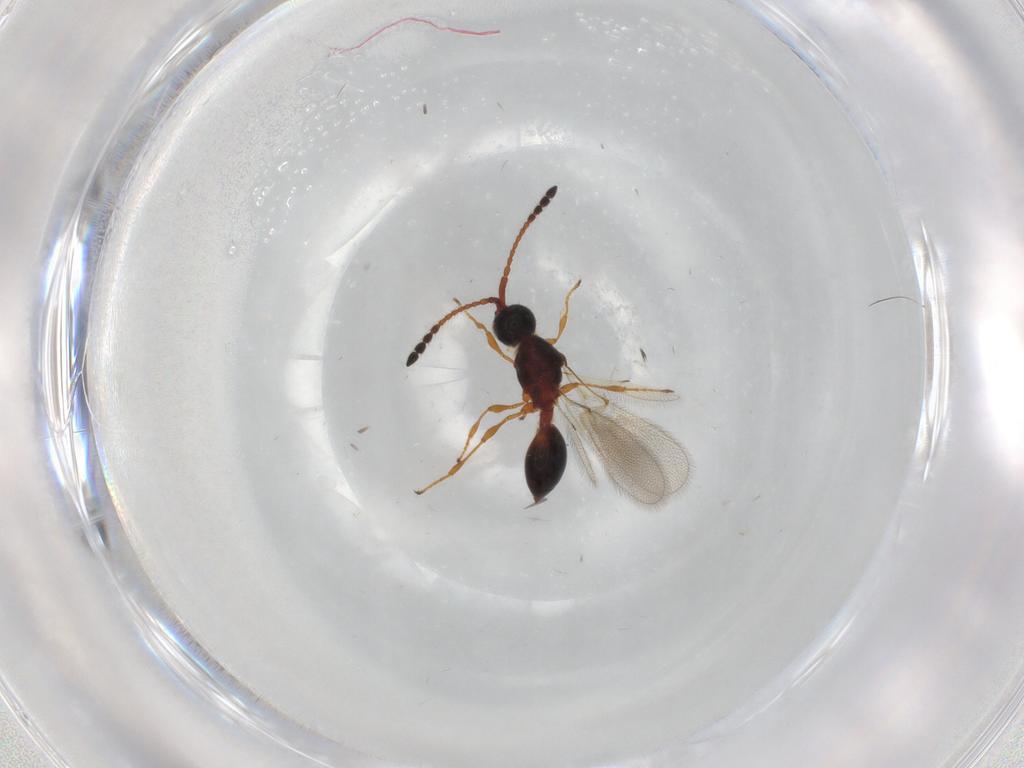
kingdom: Animalia
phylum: Arthropoda
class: Insecta
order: Hymenoptera
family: Diapriidae
